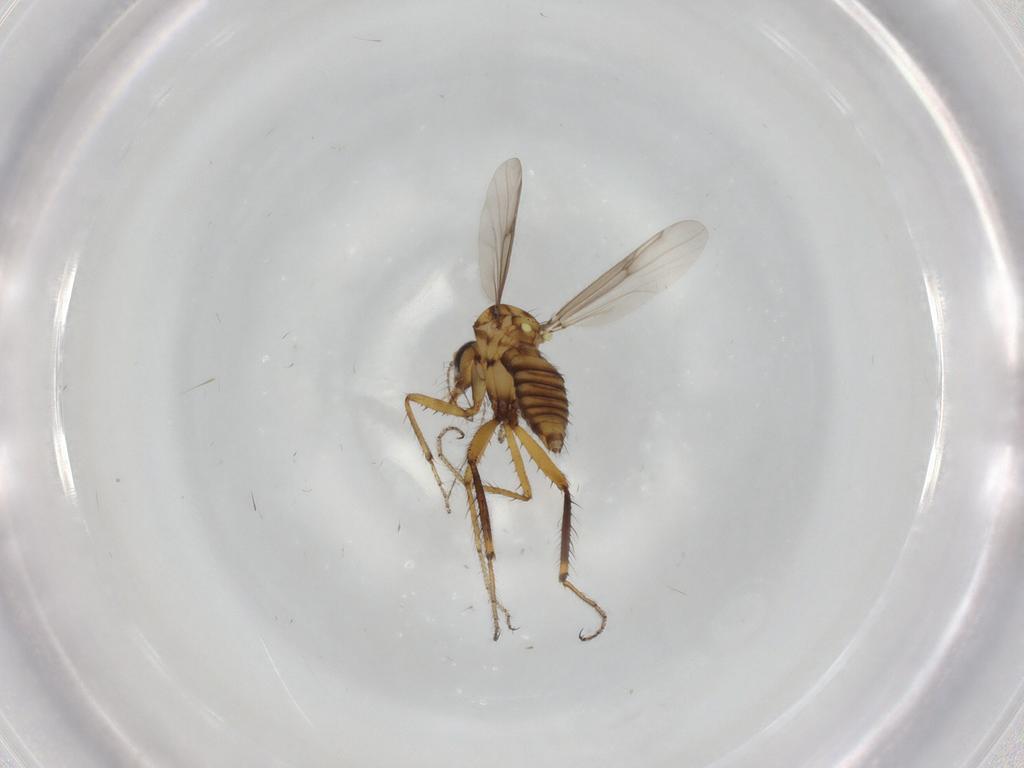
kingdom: Animalia
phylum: Arthropoda
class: Insecta
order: Diptera
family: Ceratopogonidae
